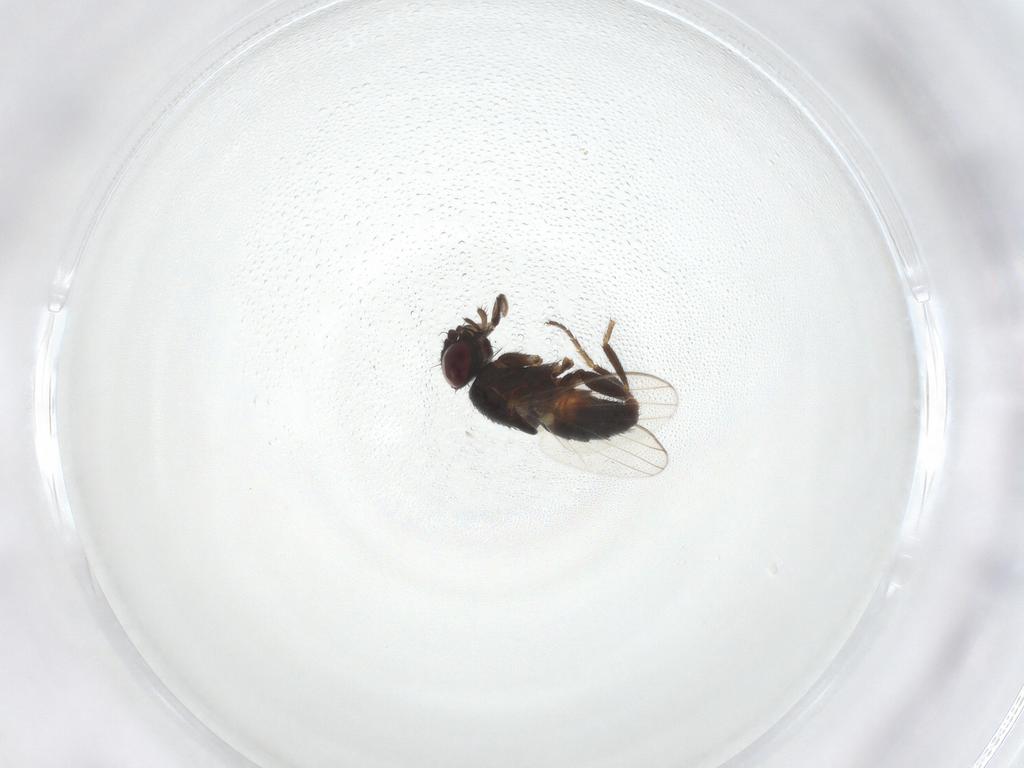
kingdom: Animalia
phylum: Arthropoda
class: Insecta
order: Diptera
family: Milichiidae
